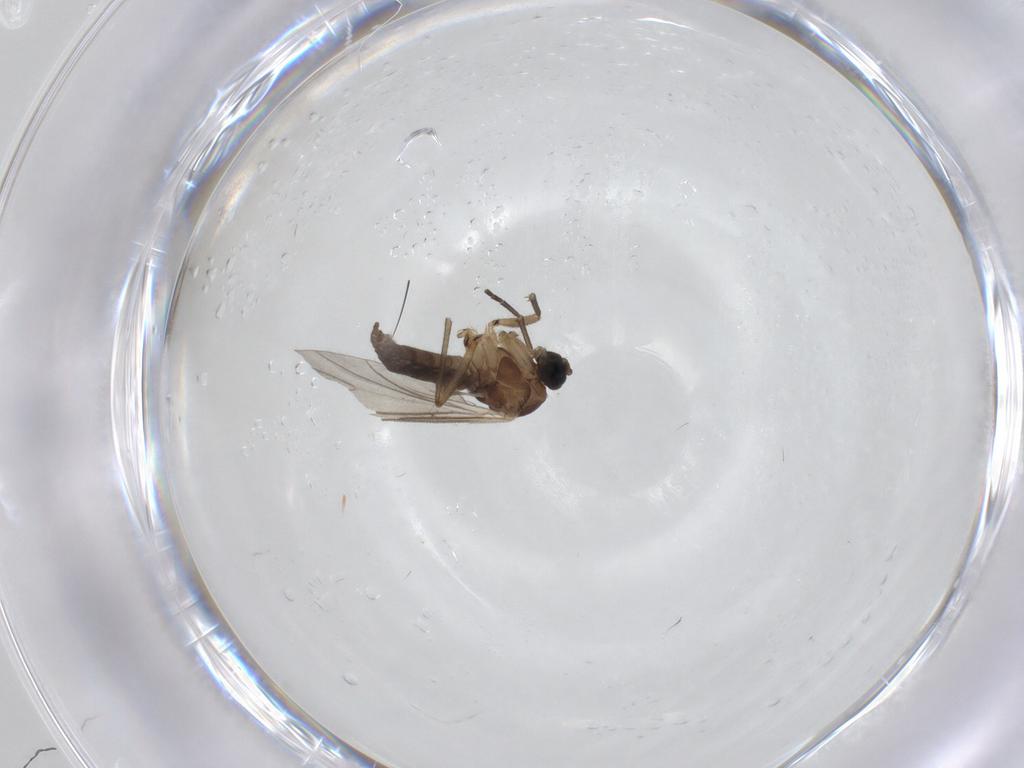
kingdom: Animalia
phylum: Arthropoda
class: Insecta
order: Diptera
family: Sciaridae
